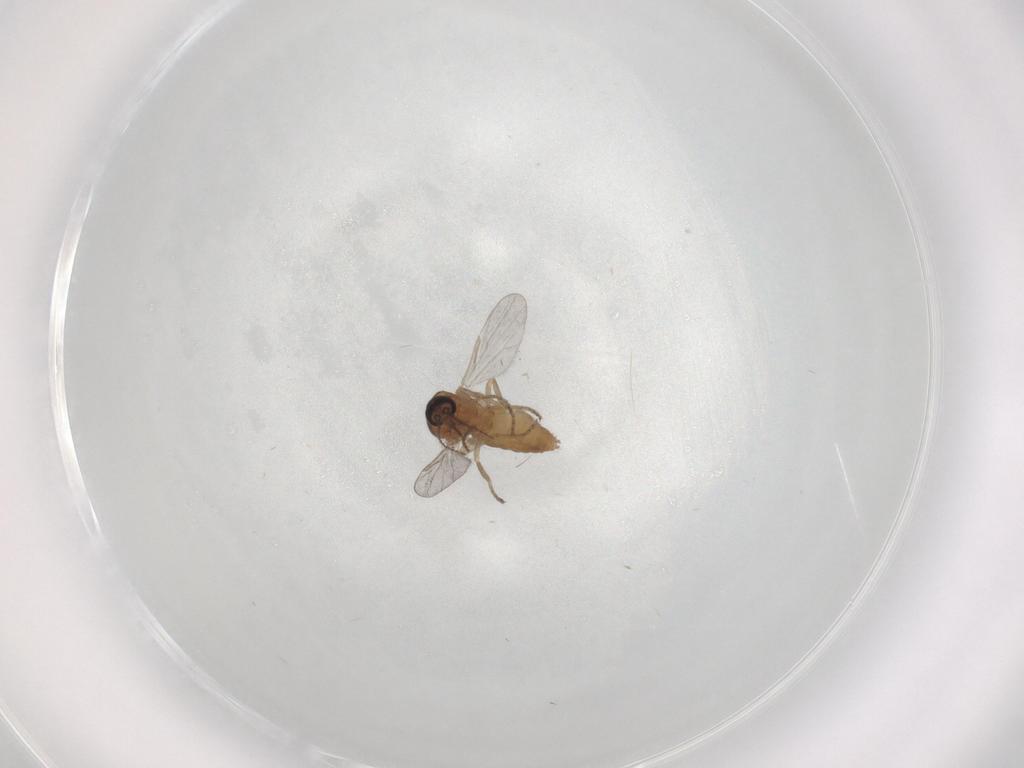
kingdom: Animalia
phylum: Arthropoda
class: Insecta
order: Diptera
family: Ceratopogonidae
